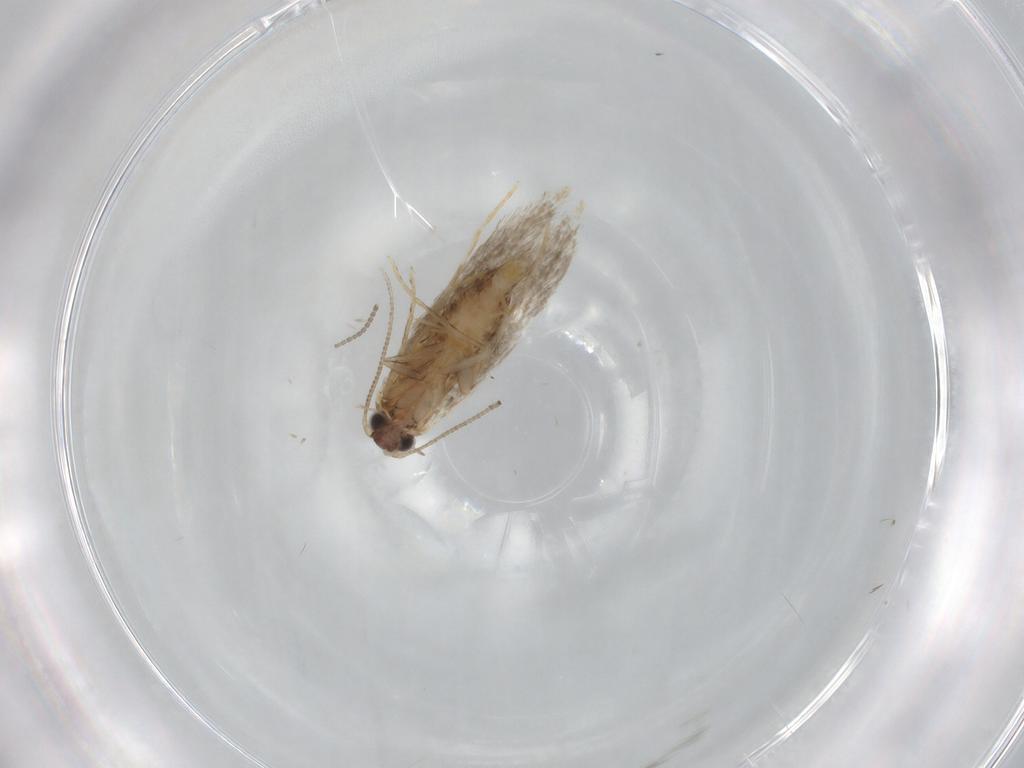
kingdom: Animalia
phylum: Arthropoda
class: Insecta
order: Lepidoptera
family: Tineidae
